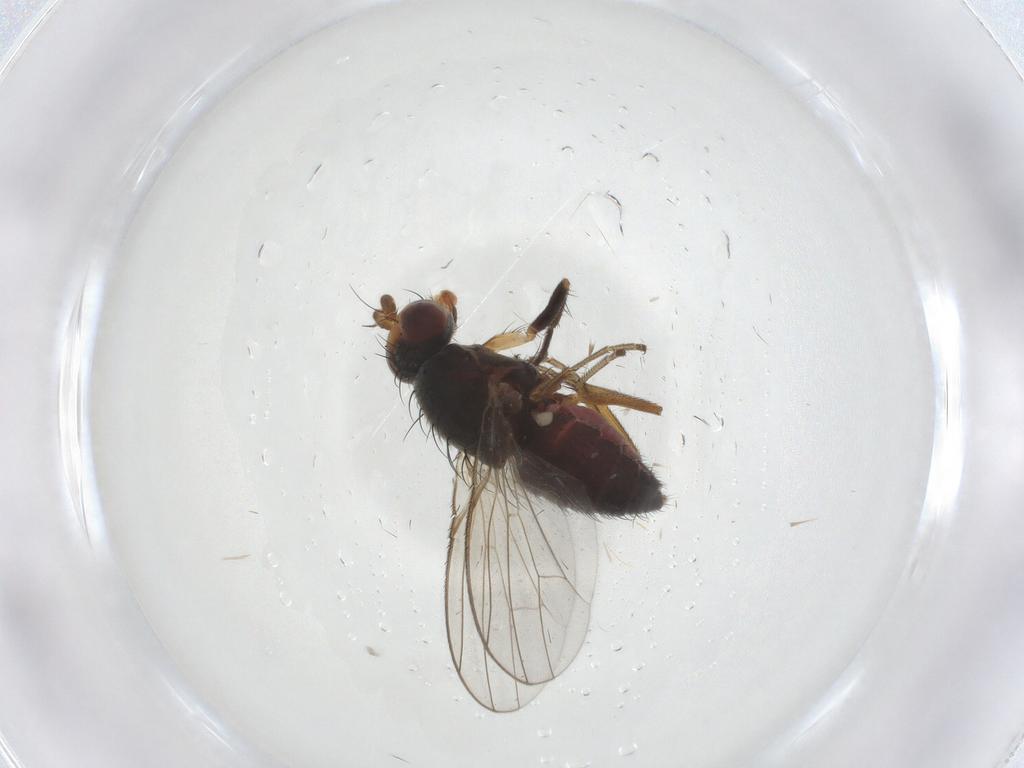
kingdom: Animalia
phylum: Arthropoda
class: Insecta
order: Diptera
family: Heleomyzidae
